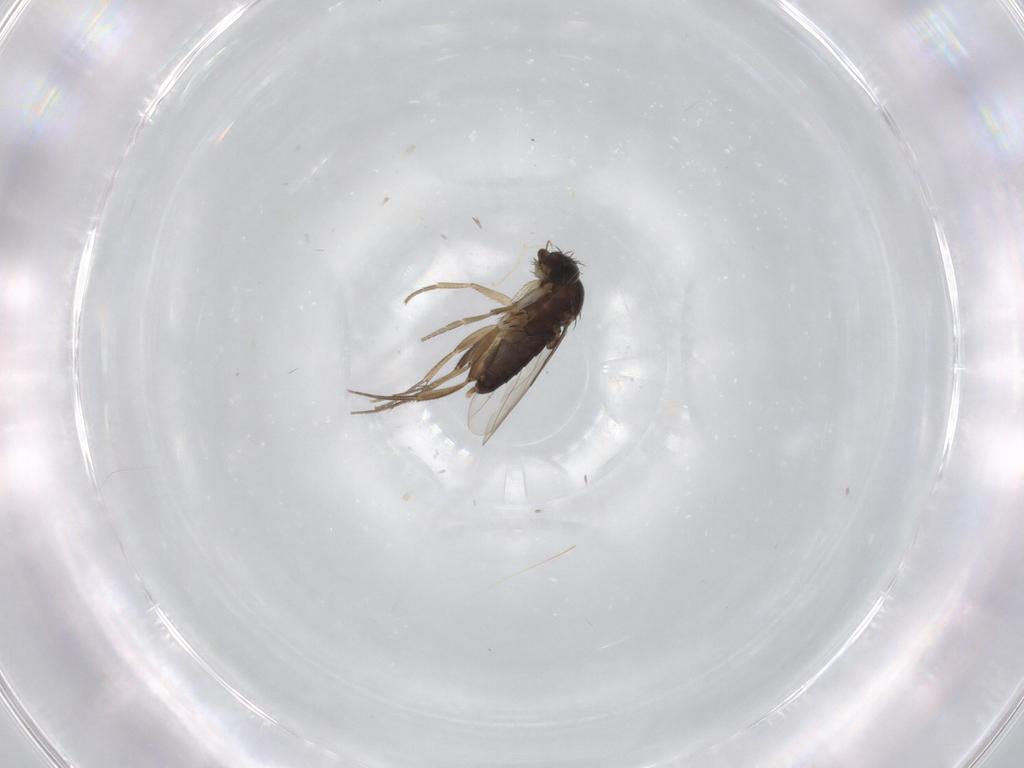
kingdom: Animalia
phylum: Arthropoda
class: Insecta
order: Diptera
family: Phoridae
